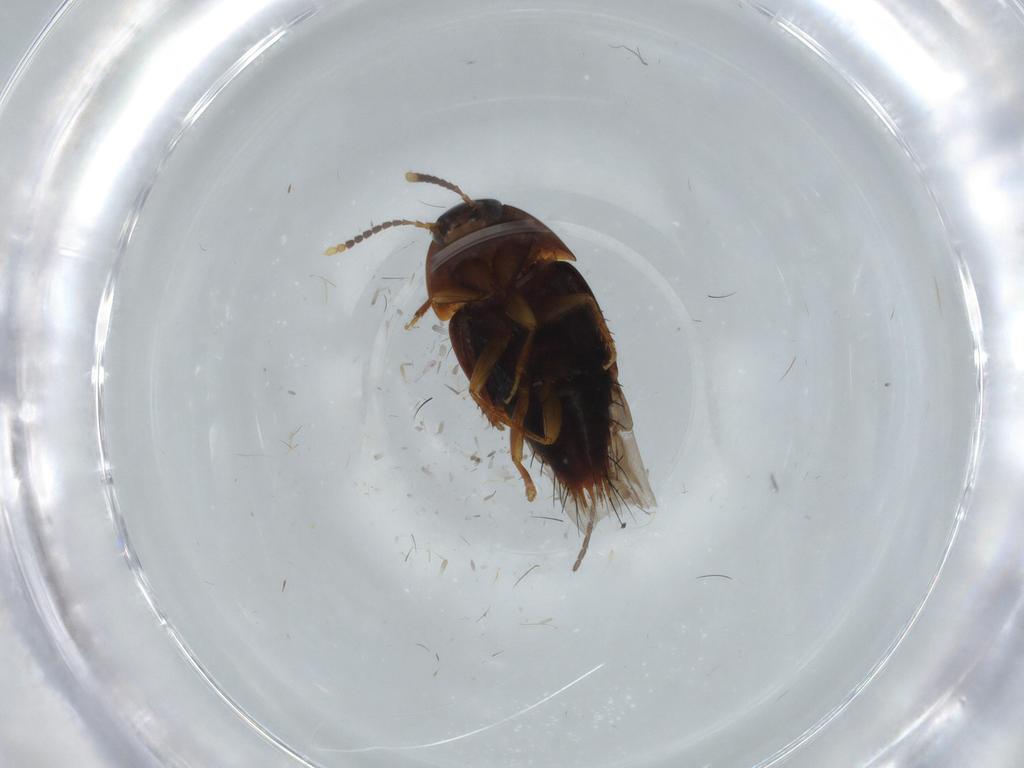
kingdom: Animalia
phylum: Arthropoda
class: Insecta
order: Coleoptera
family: Staphylinidae
